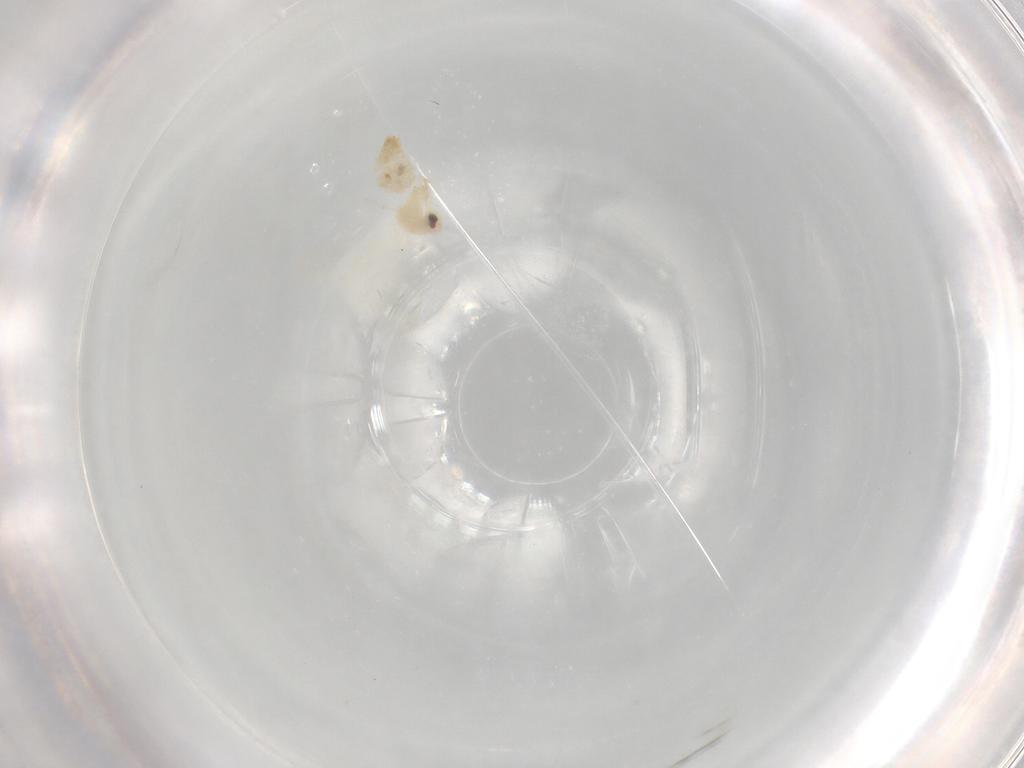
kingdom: Animalia
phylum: Arthropoda
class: Insecta
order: Hemiptera
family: Aleyrodidae
